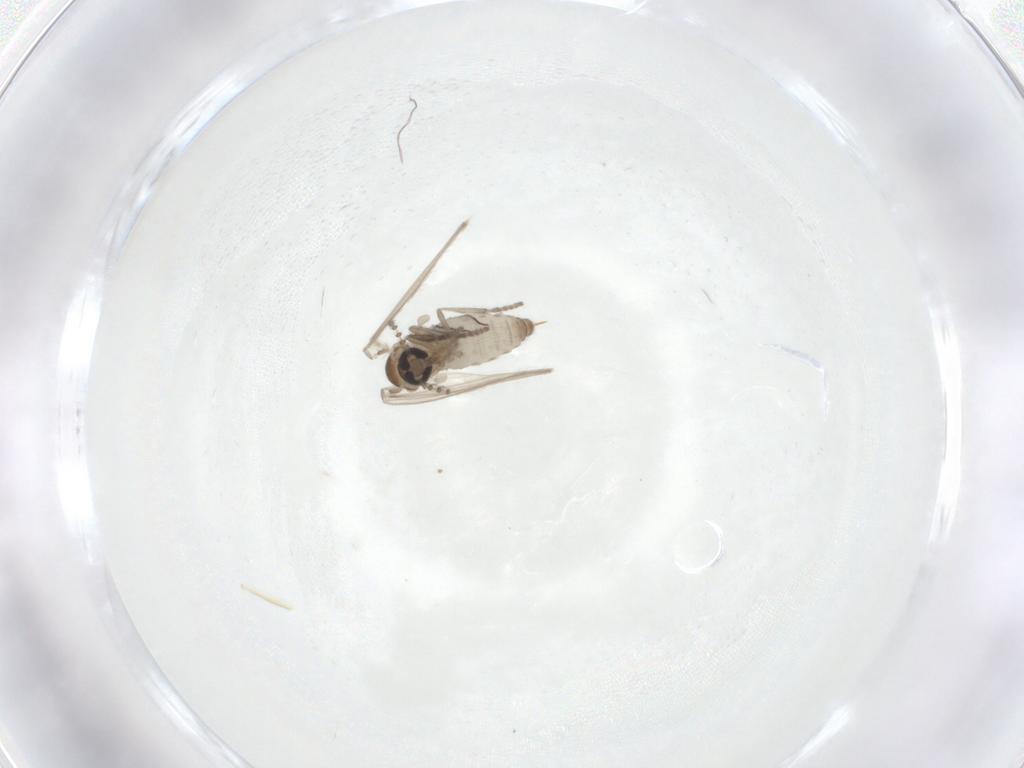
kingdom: Animalia
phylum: Arthropoda
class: Insecta
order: Diptera
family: Psychodidae
